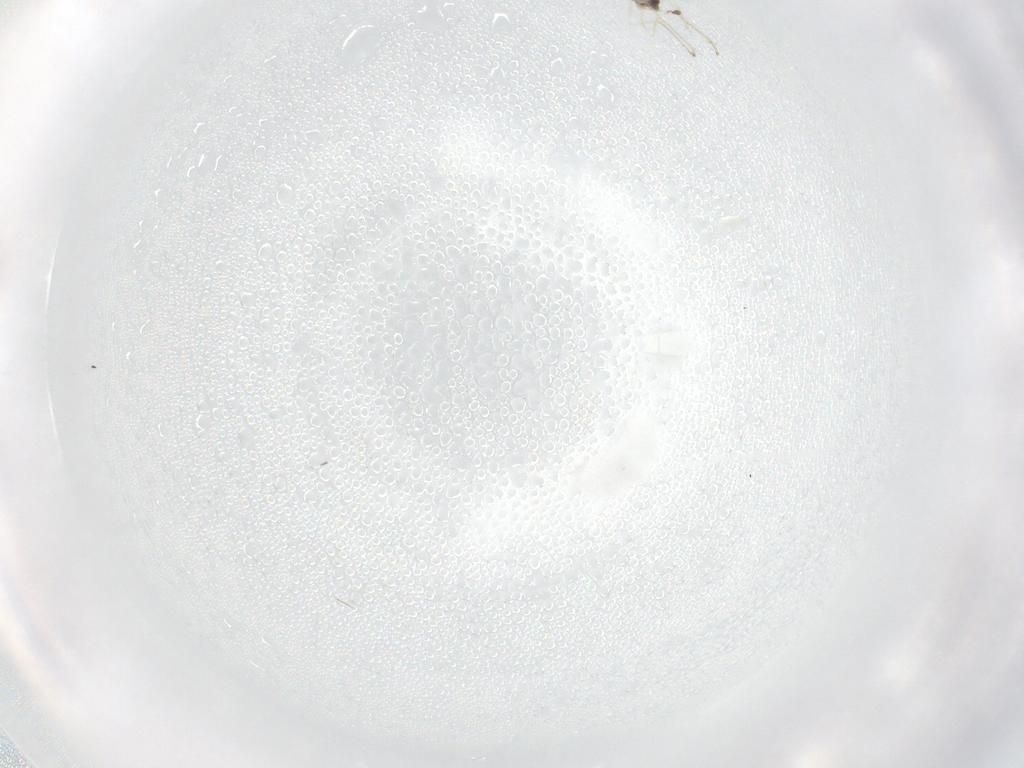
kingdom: Animalia
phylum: Arthropoda
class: Insecta
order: Diptera
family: Cecidomyiidae
